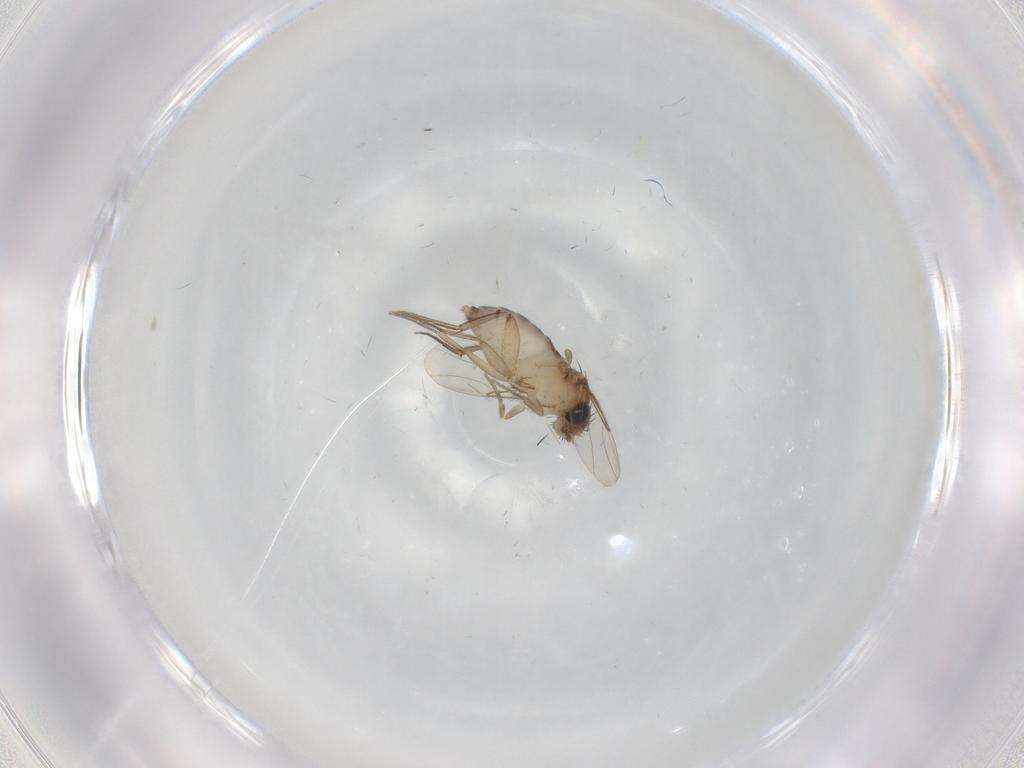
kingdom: Animalia
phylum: Arthropoda
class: Insecta
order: Diptera
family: Phoridae
